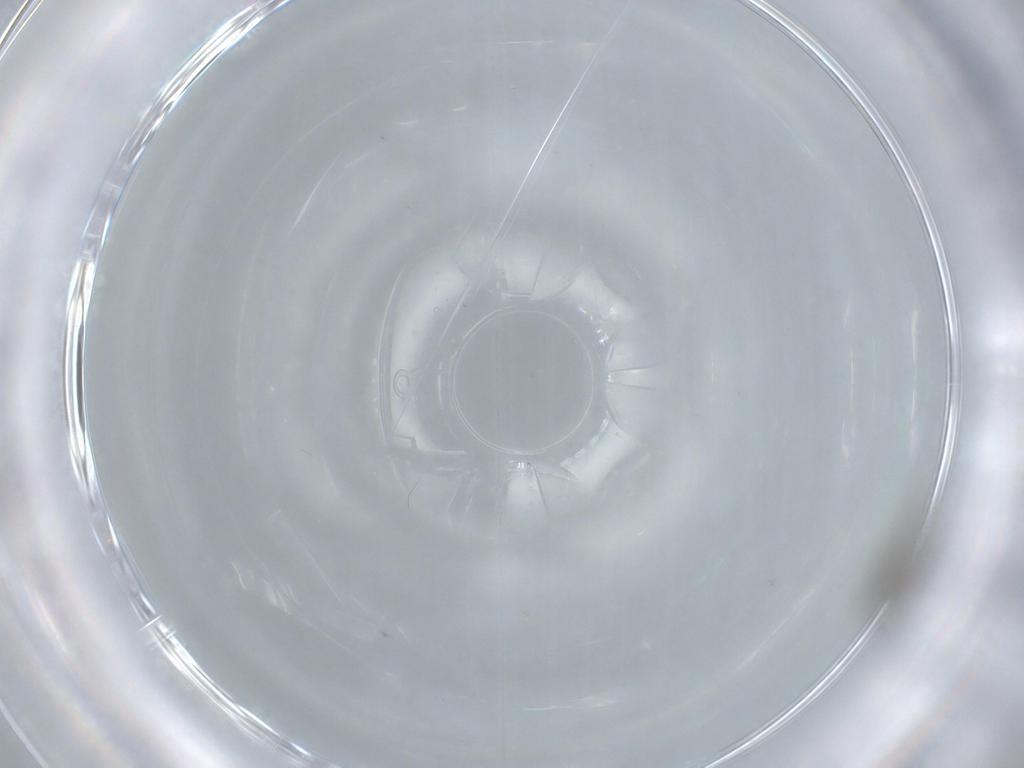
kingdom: Animalia
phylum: Arthropoda
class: Insecta
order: Diptera
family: Cecidomyiidae
